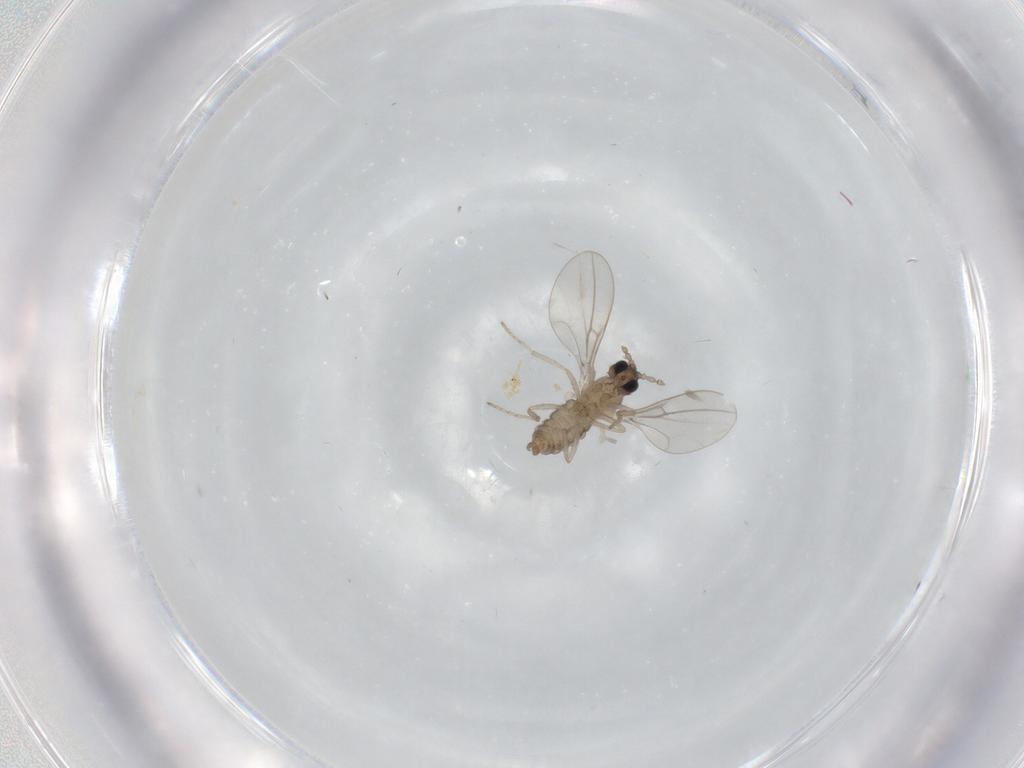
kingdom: Animalia
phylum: Arthropoda
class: Insecta
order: Diptera
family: Cecidomyiidae
